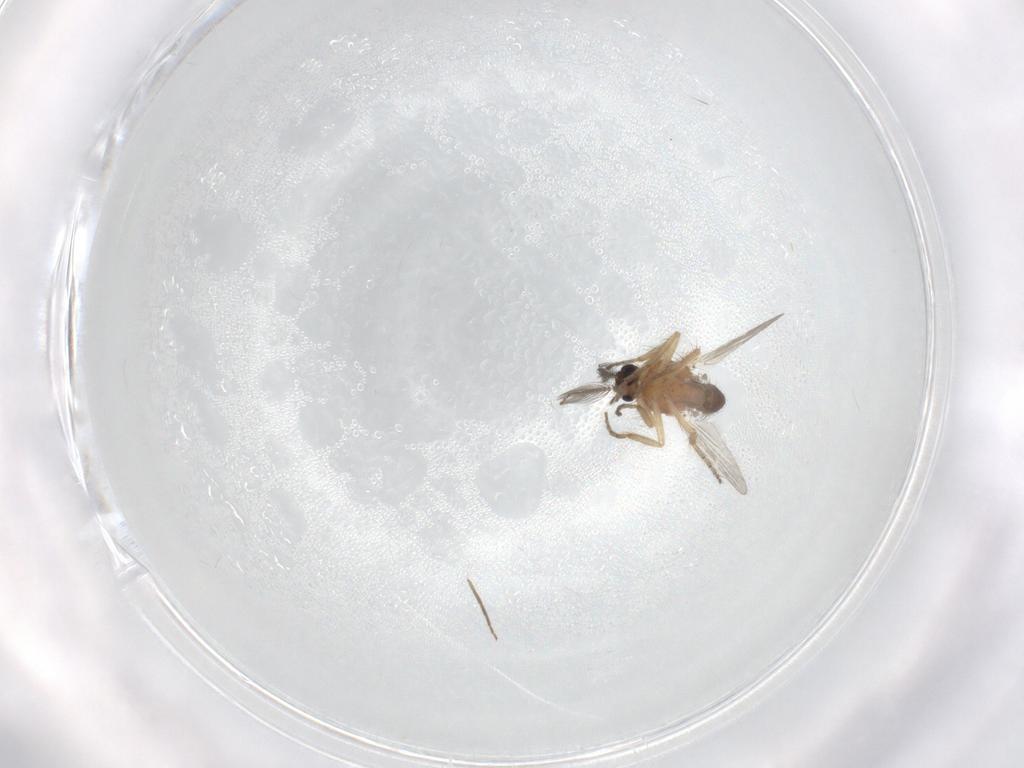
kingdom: Animalia
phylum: Arthropoda
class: Insecta
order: Diptera
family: Ceratopogonidae
